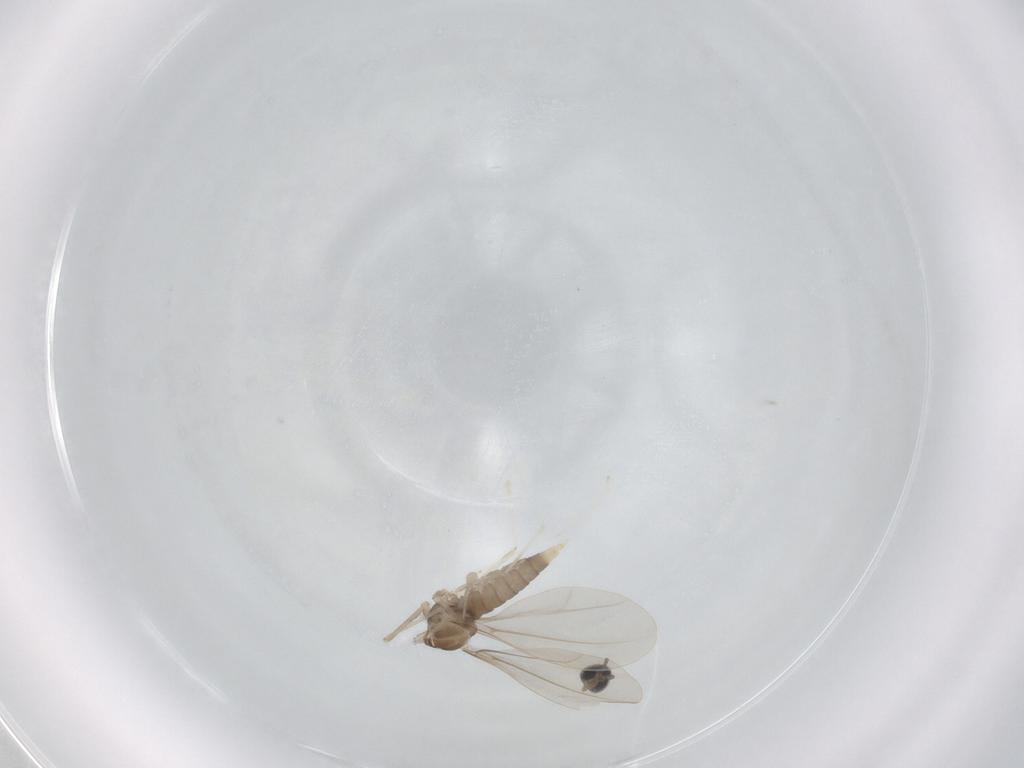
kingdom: Animalia
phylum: Arthropoda
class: Insecta
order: Diptera
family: Cecidomyiidae
